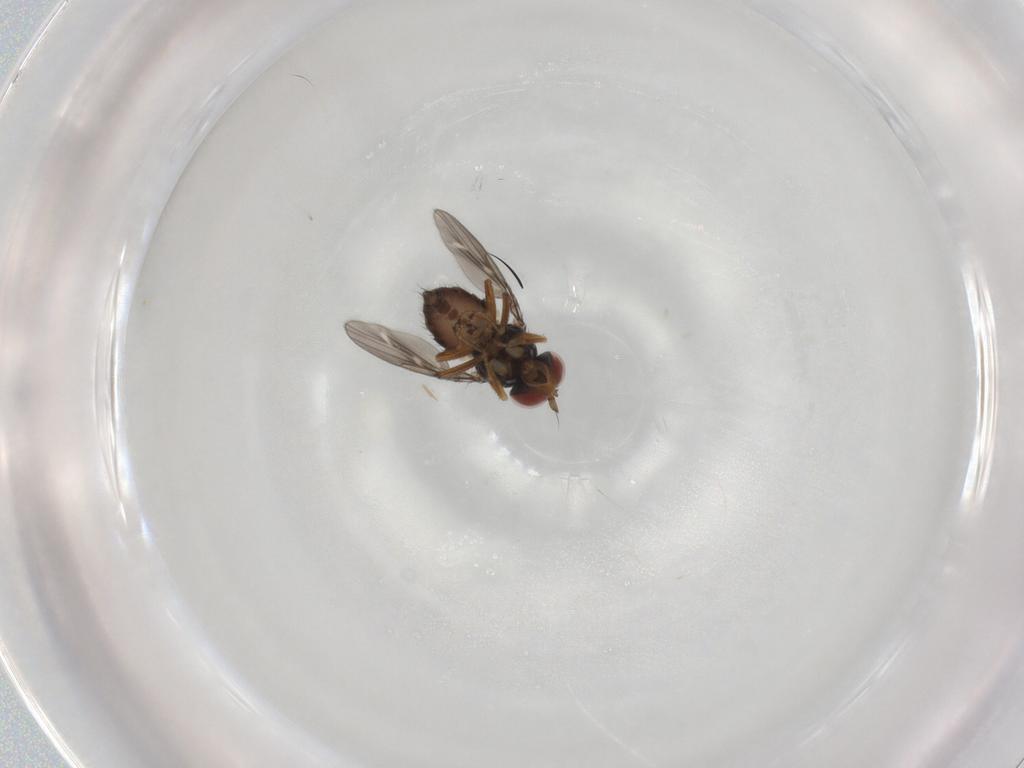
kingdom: Animalia
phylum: Arthropoda
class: Insecta
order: Diptera
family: Ephydridae
